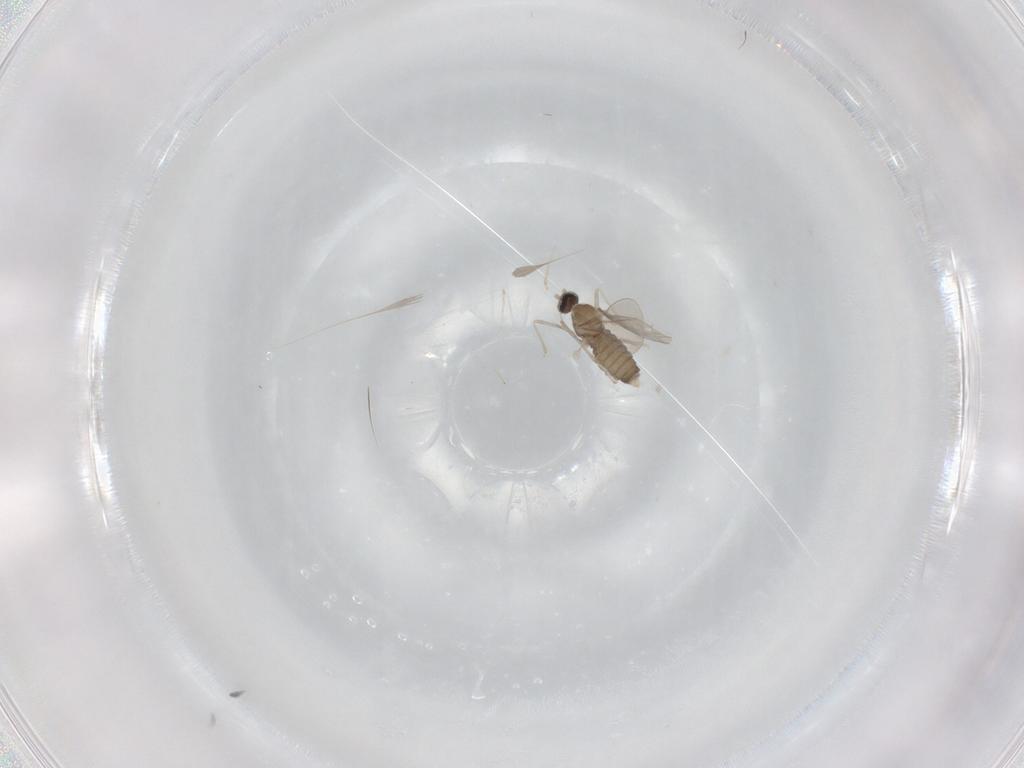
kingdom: Animalia
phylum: Arthropoda
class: Insecta
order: Diptera
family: Cecidomyiidae
